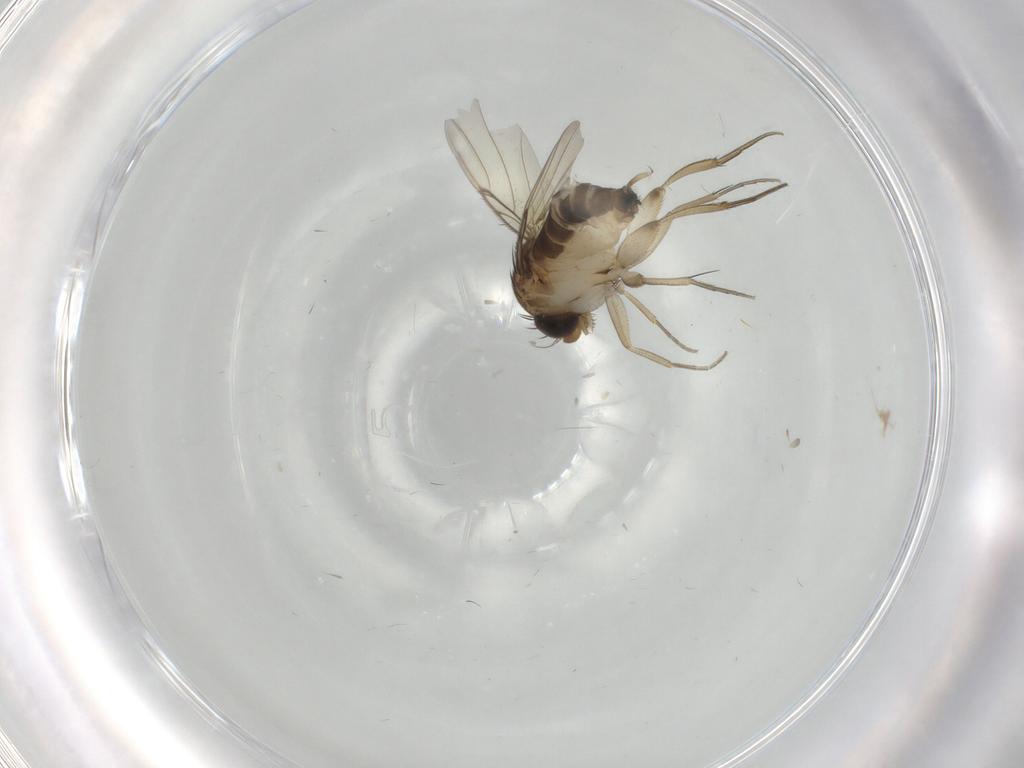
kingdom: Animalia
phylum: Arthropoda
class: Insecta
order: Diptera
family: Phoridae
